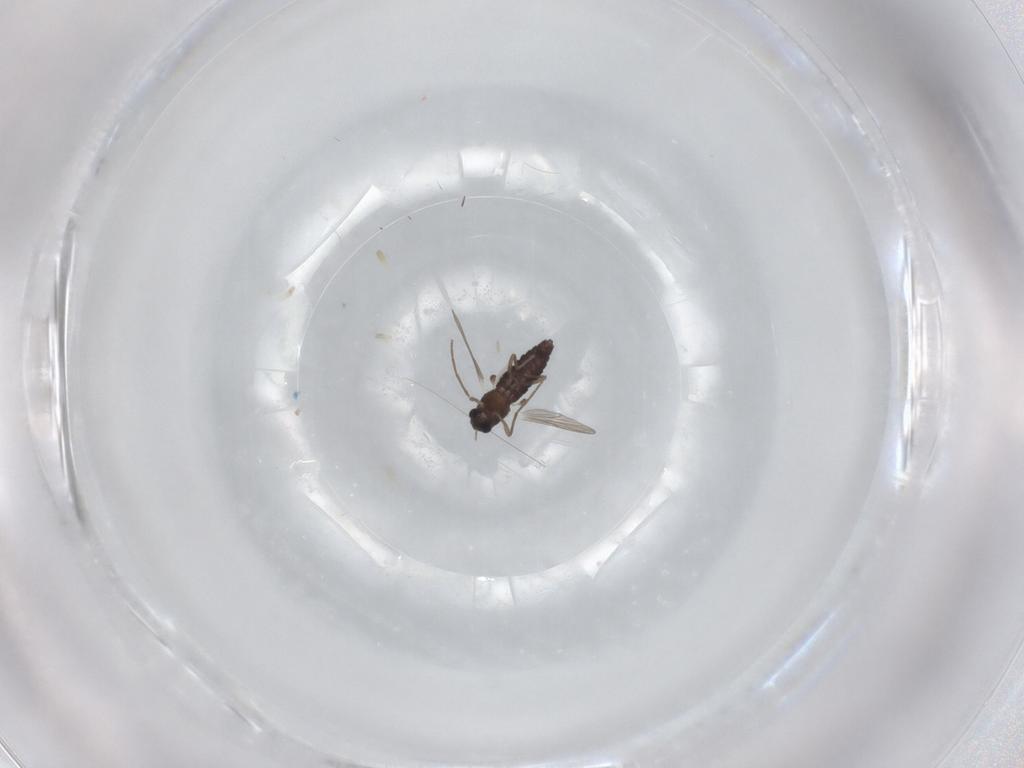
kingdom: Animalia
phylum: Arthropoda
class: Insecta
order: Diptera
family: Chironomidae
